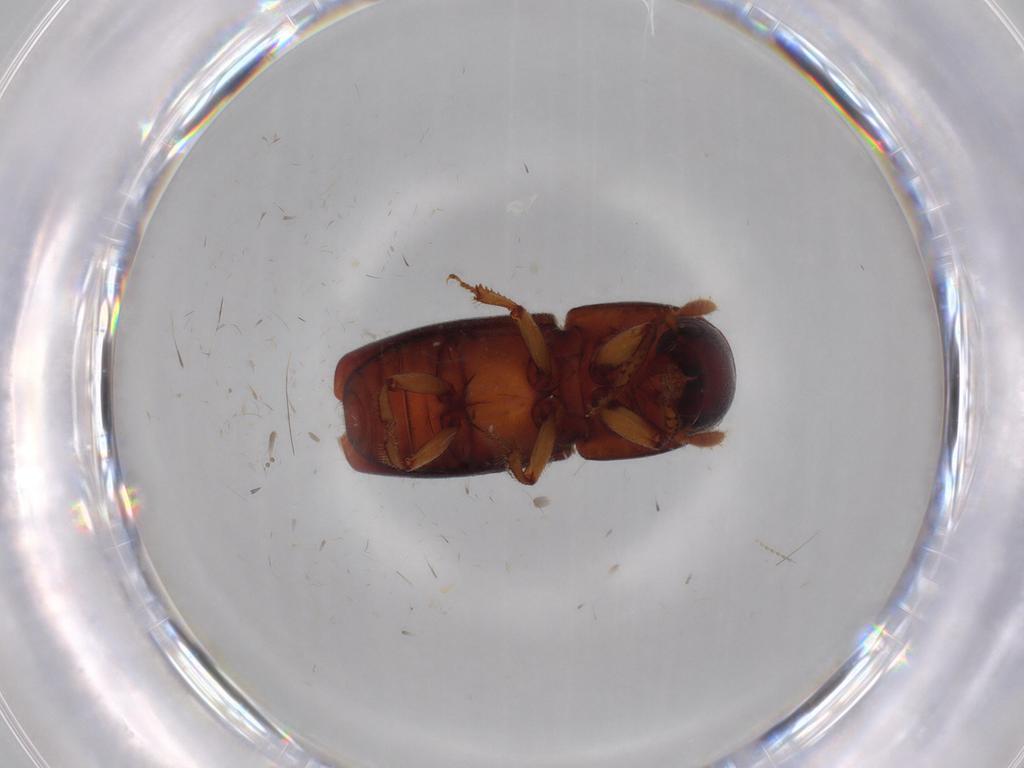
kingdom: Animalia
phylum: Arthropoda
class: Insecta
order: Coleoptera
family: Curculionidae
